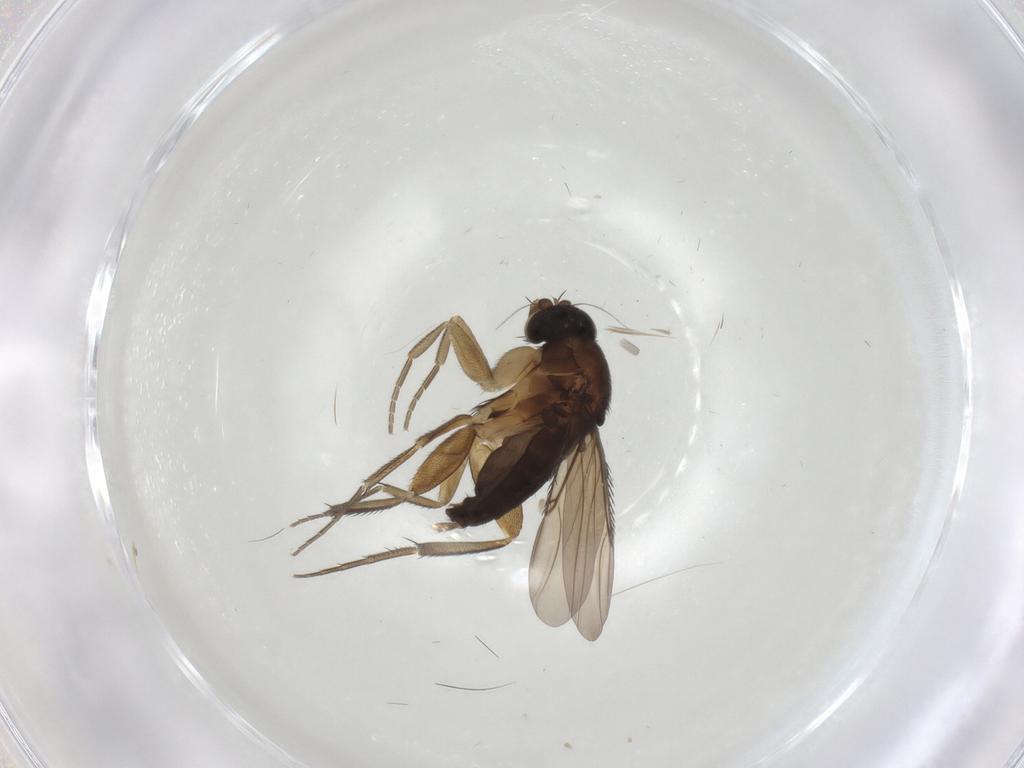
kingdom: Animalia
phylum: Arthropoda
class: Insecta
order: Diptera
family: Phoridae
